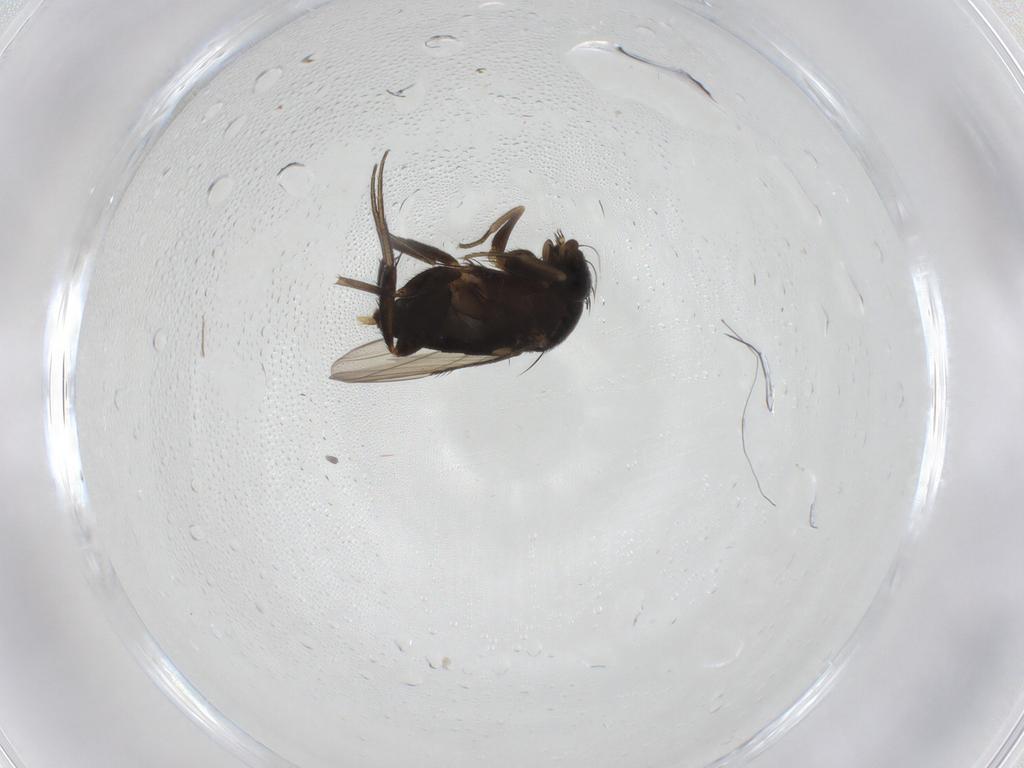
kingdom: Animalia
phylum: Arthropoda
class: Insecta
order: Diptera
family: Phoridae
